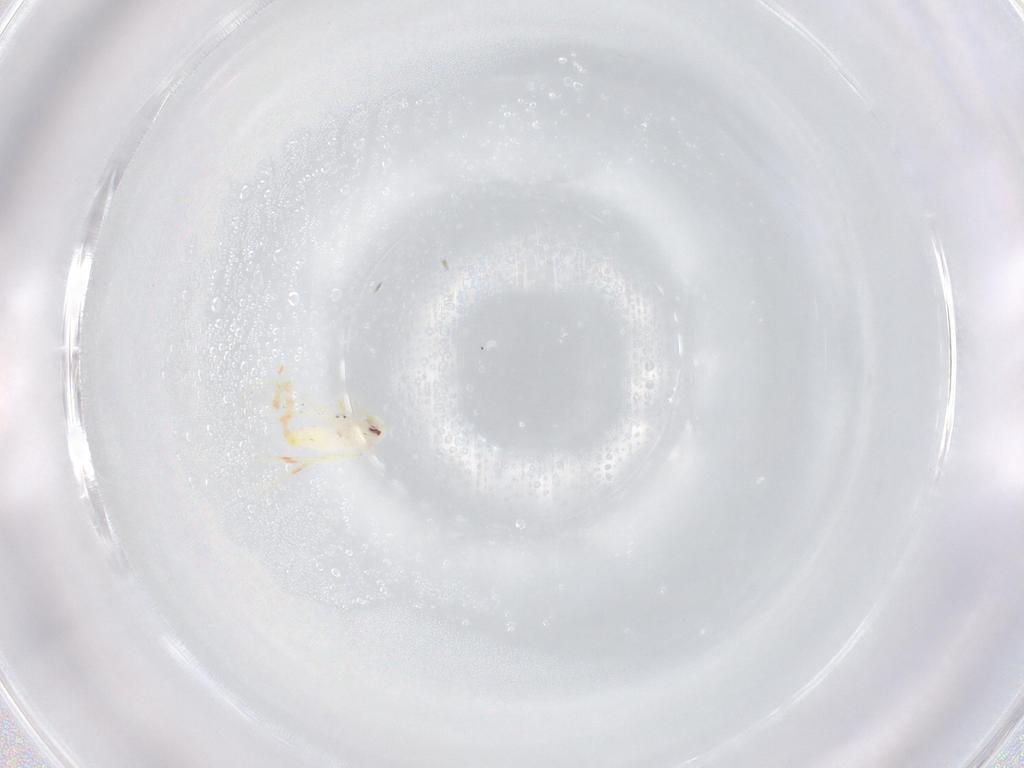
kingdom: Animalia
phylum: Arthropoda
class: Insecta
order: Hemiptera
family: Aleyrodidae
